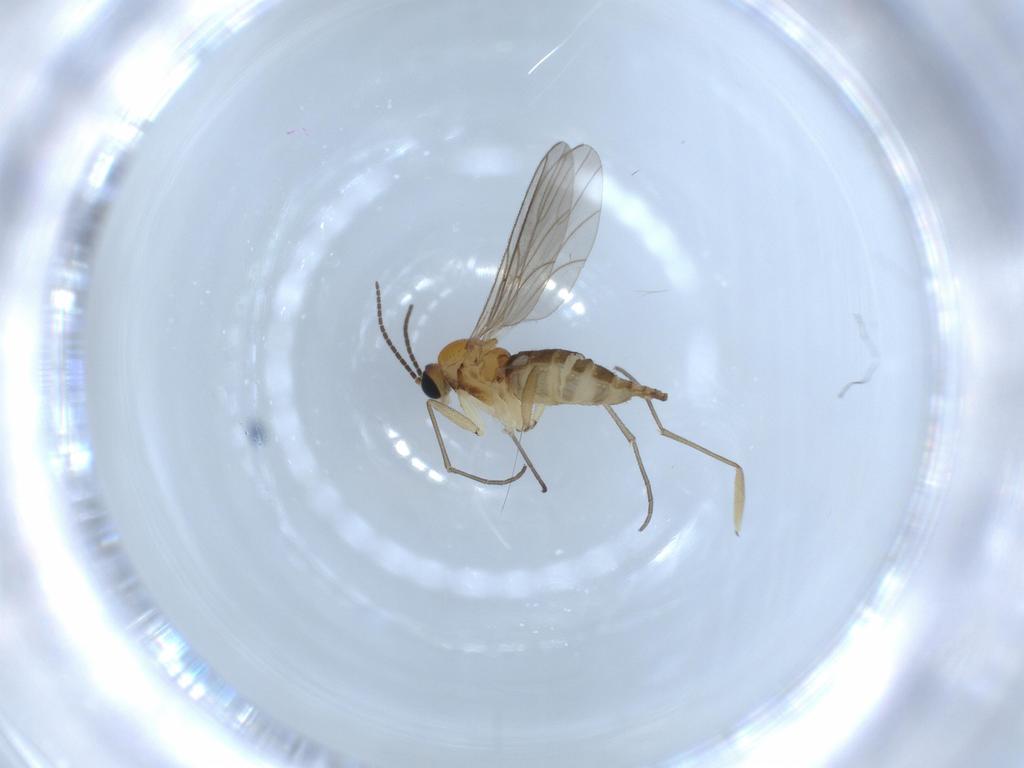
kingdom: Animalia
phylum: Arthropoda
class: Insecta
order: Diptera
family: Sciaridae
